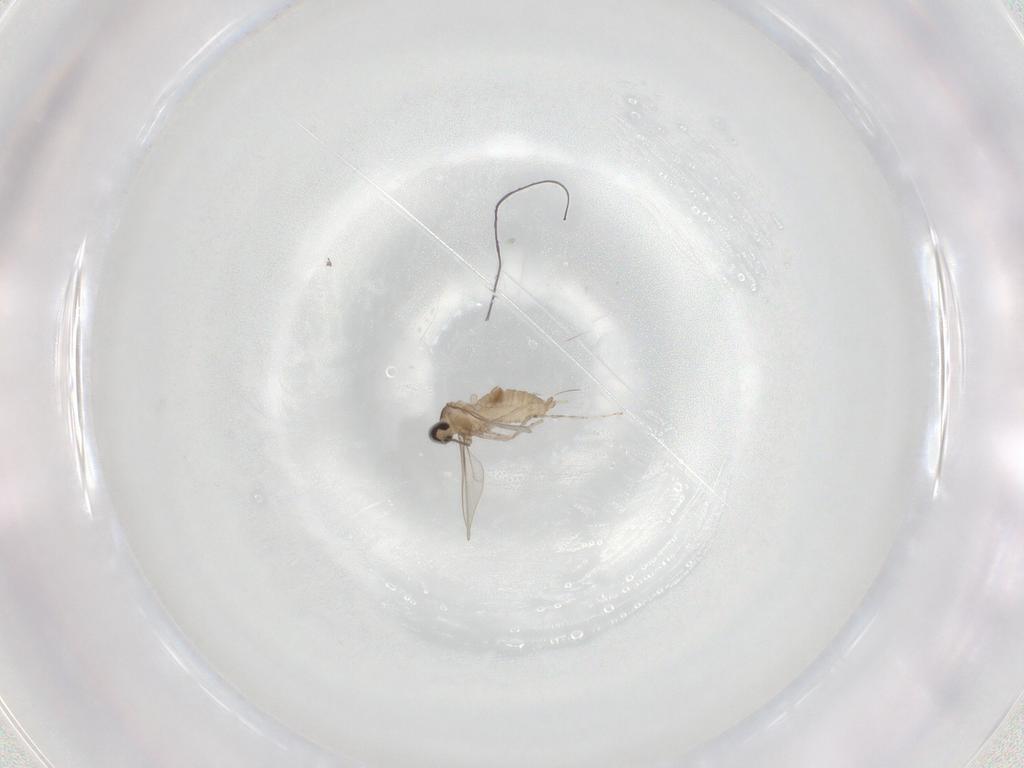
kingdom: Animalia
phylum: Arthropoda
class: Insecta
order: Diptera
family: Cecidomyiidae
